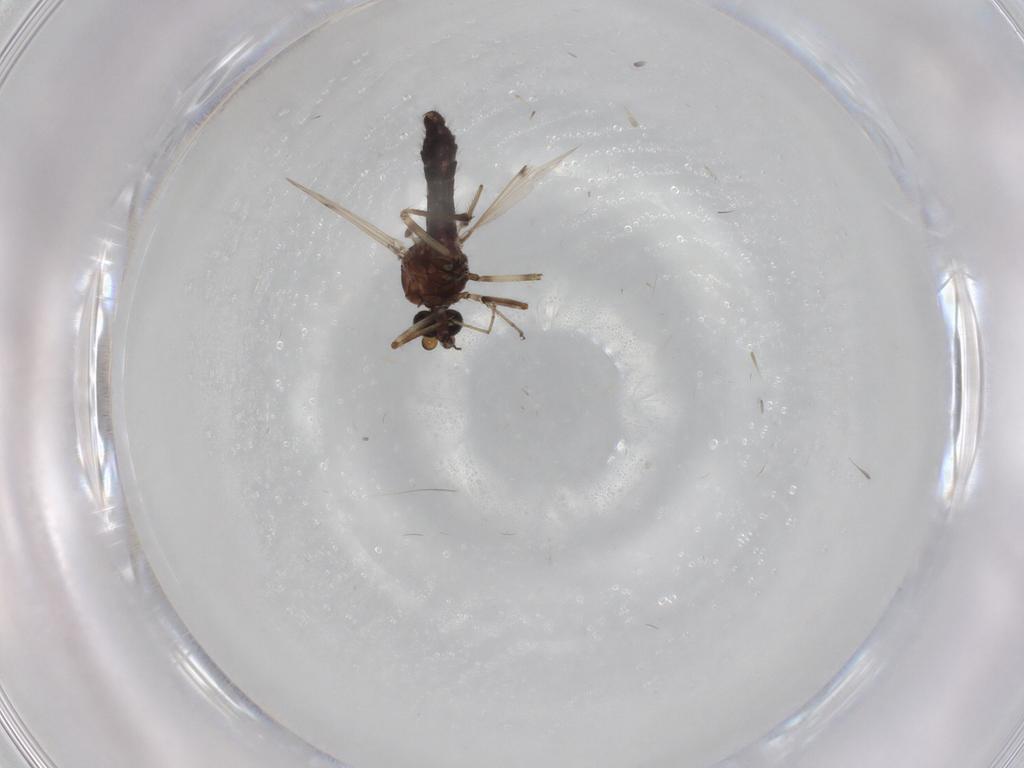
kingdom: Animalia
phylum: Arthropoda
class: Insecta
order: Diptera
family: Ceratopogonidae
